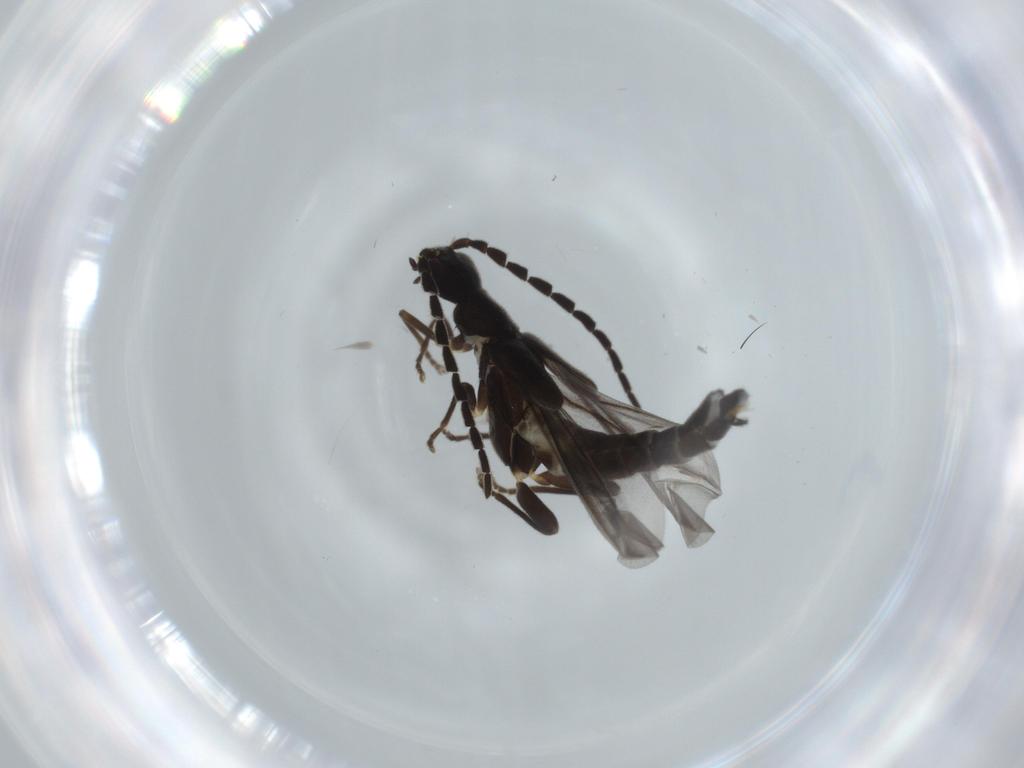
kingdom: Animalia
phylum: Arthropoda
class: Insecta
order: Coleoptera
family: Cantharidae
